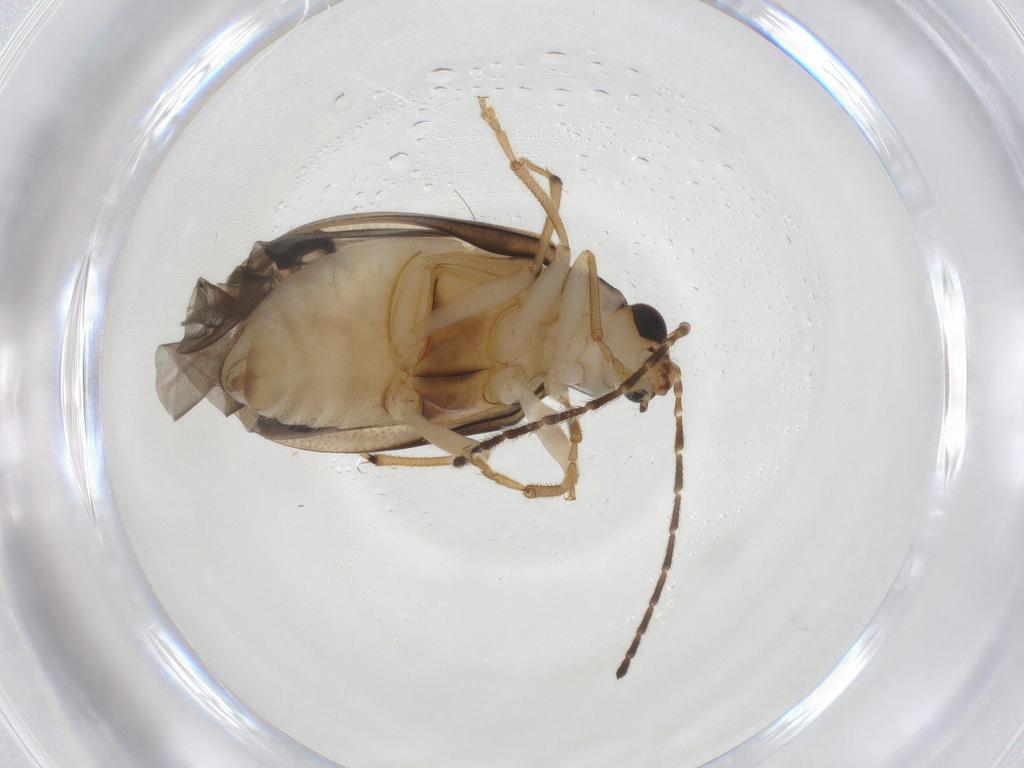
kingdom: Animalia
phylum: Arthropoda
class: Insecta
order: Coleoptera
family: Chrysomelidae
